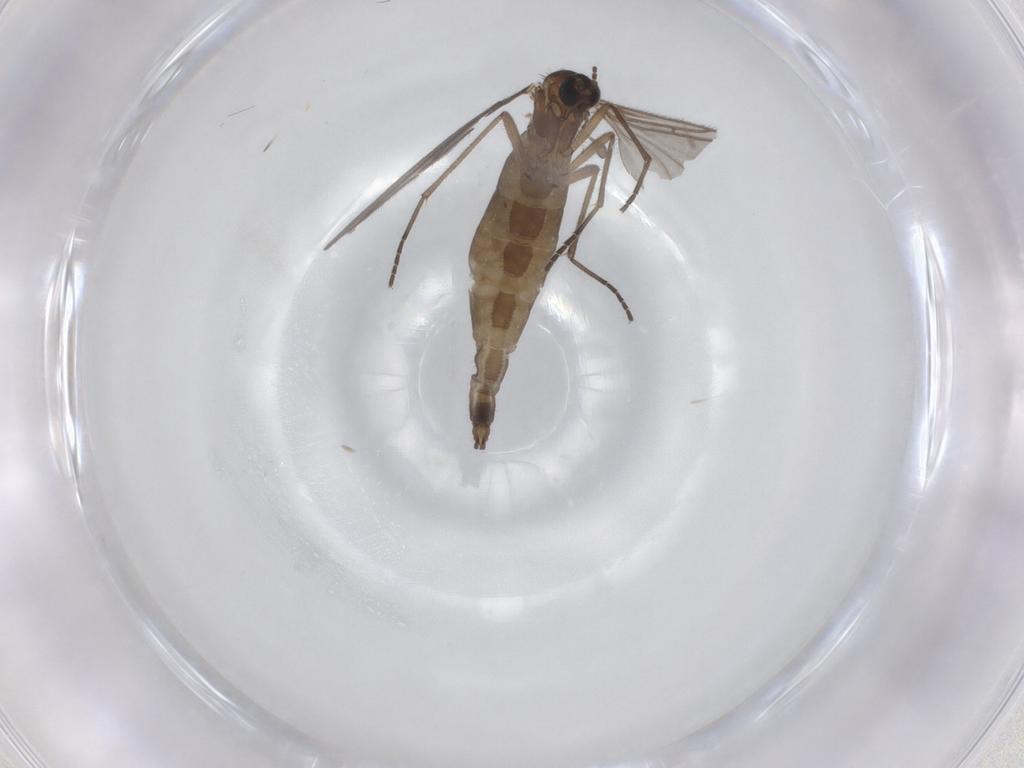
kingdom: Animalia
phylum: Arthropoda
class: Insecta
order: Diptera
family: Sciaridae
